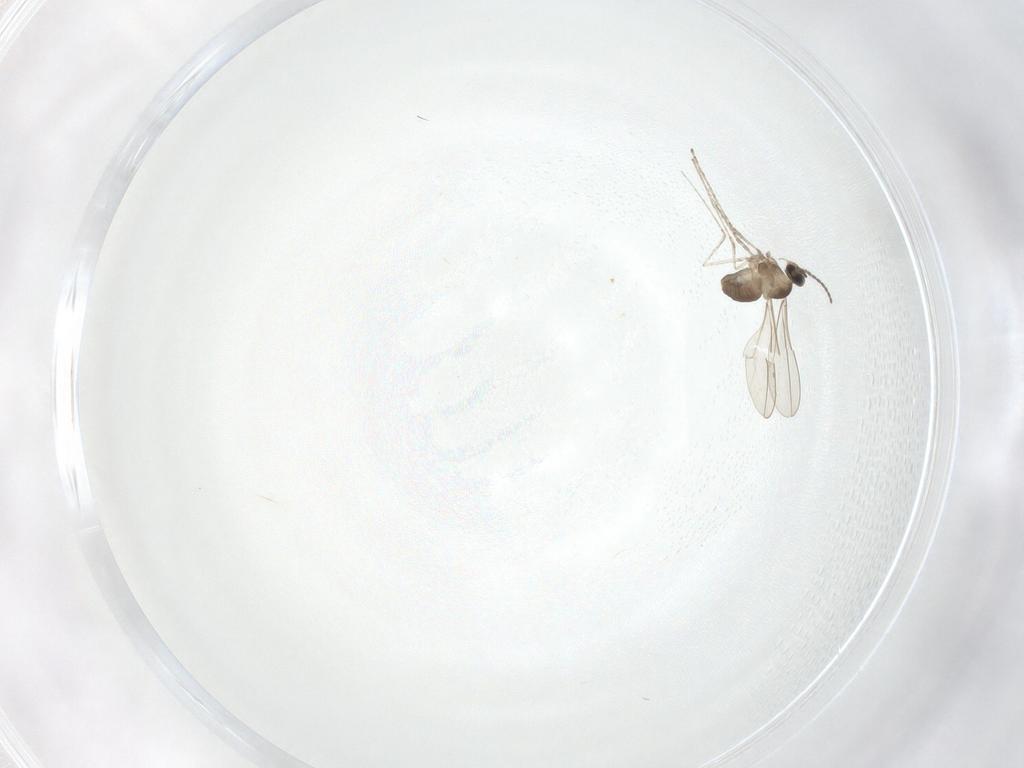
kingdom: Animalia
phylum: Arthropoda
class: Insecta
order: Diptera
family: Cecidomyiidae
